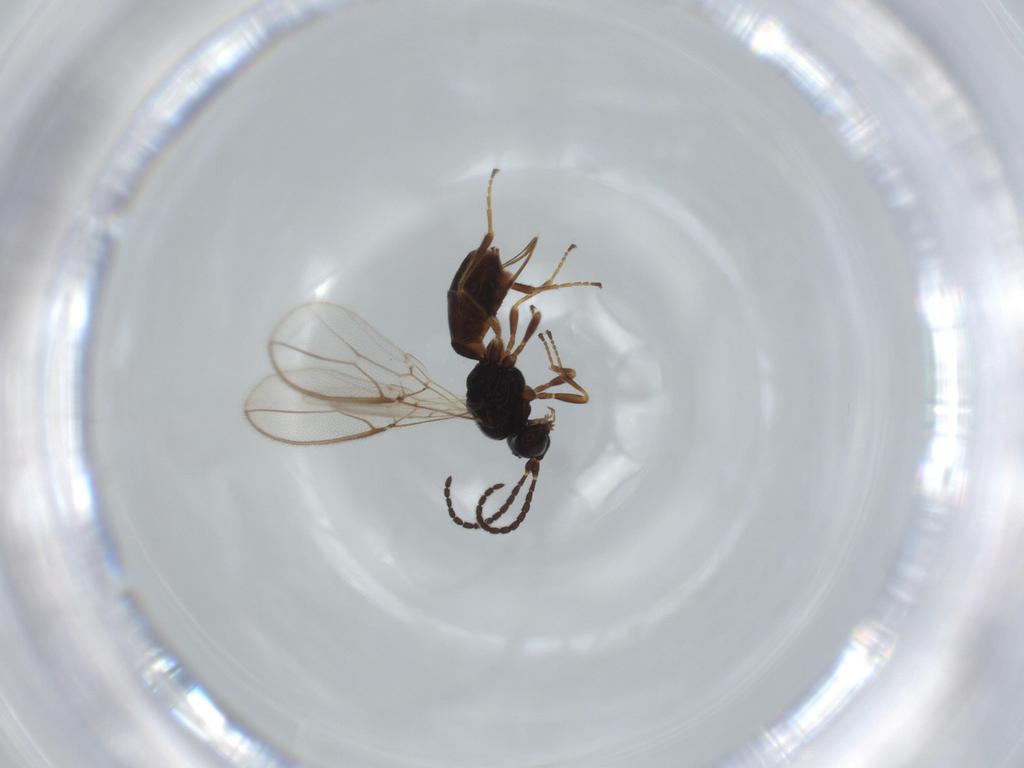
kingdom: Animalia
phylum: Arthropoda
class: Insecta
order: Hymenoptera
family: Braconidae
